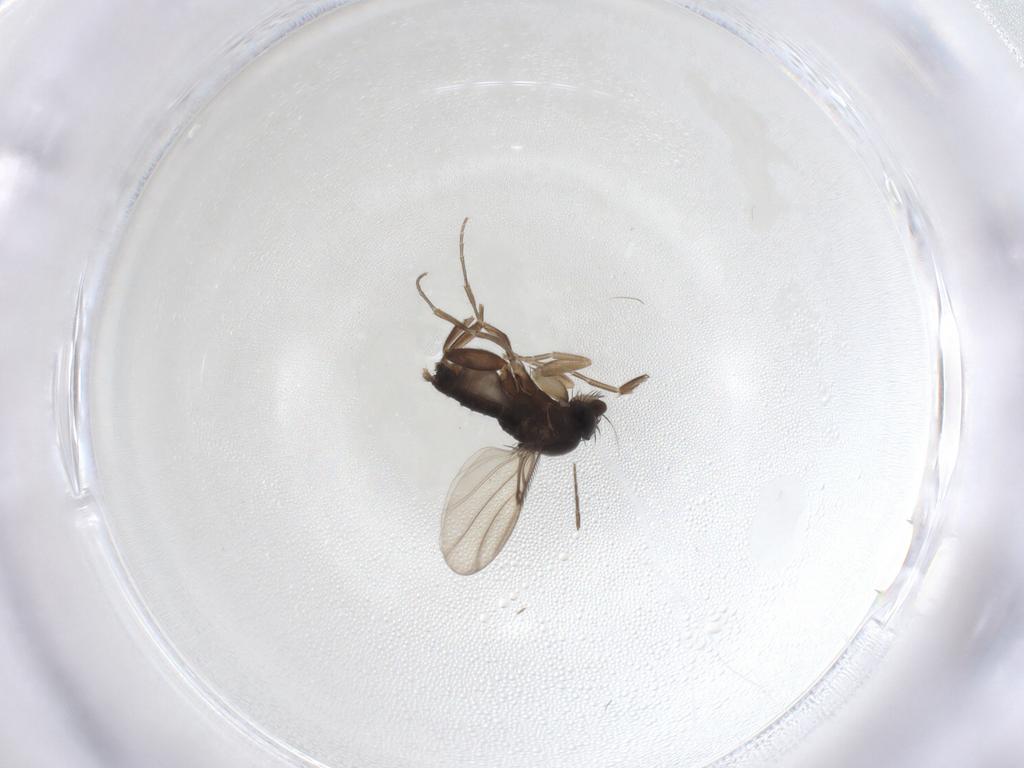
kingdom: Animalia
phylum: Arthropoda
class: Insecta
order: Diptera
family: Phoridae
